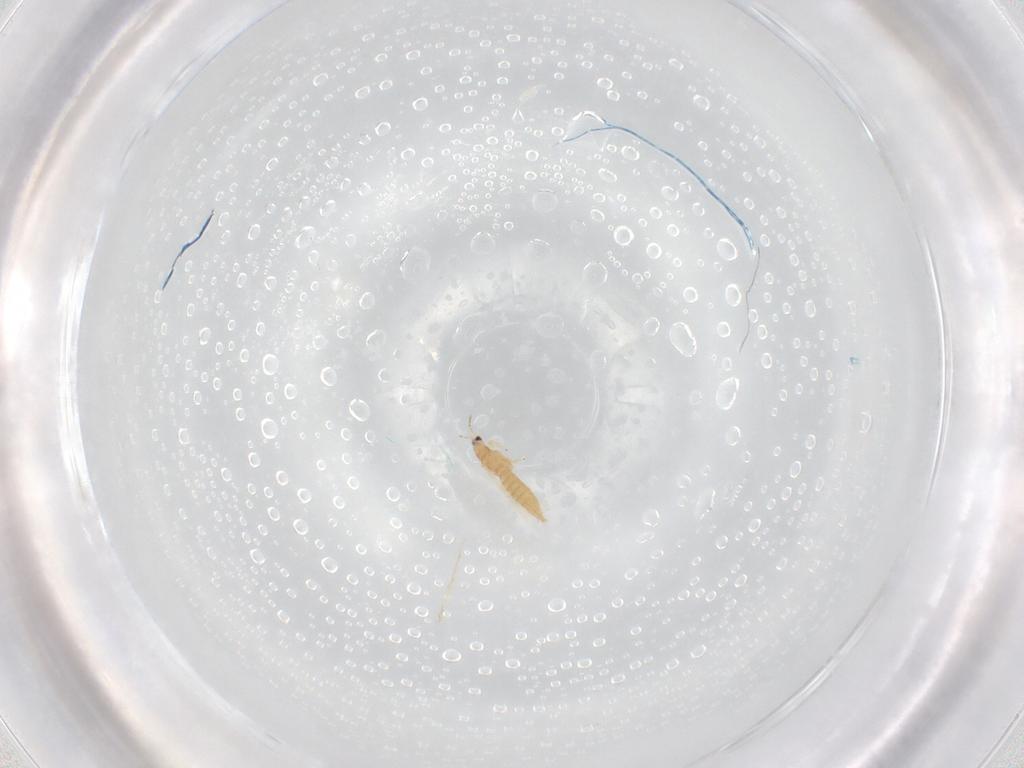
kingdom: Animalia
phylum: Arthropoda
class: Insecta
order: Thysanoptera
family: Thripidae
